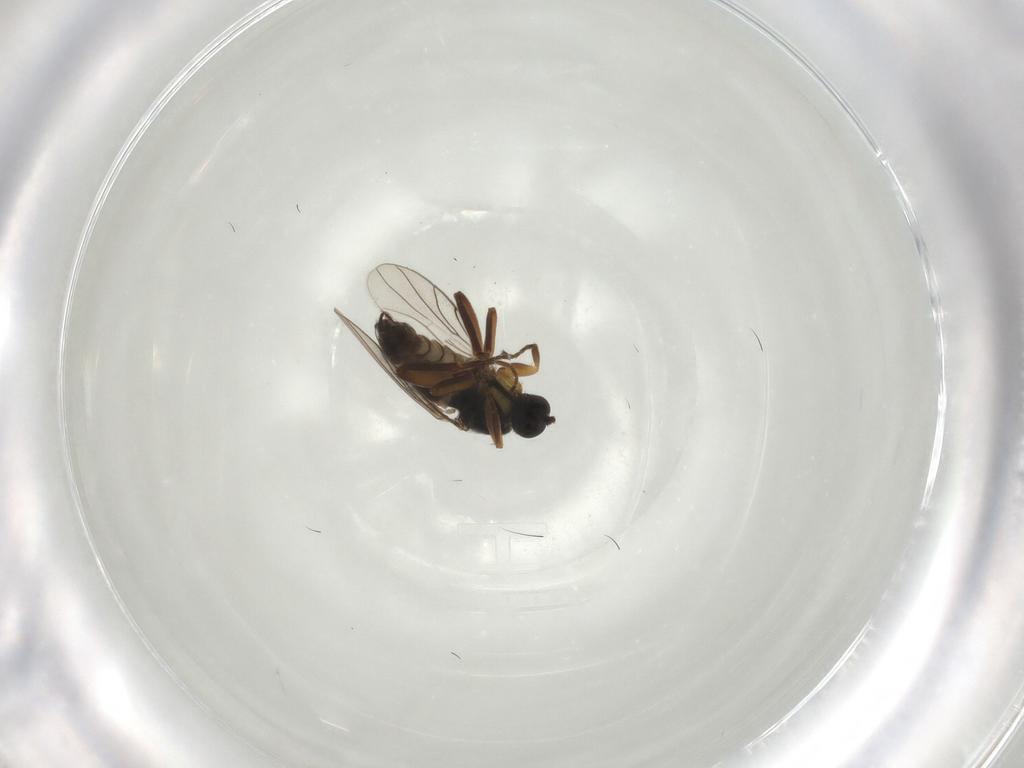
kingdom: Animalia
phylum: Arthropoda
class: Insecta
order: Diptera
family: Hybotidae
